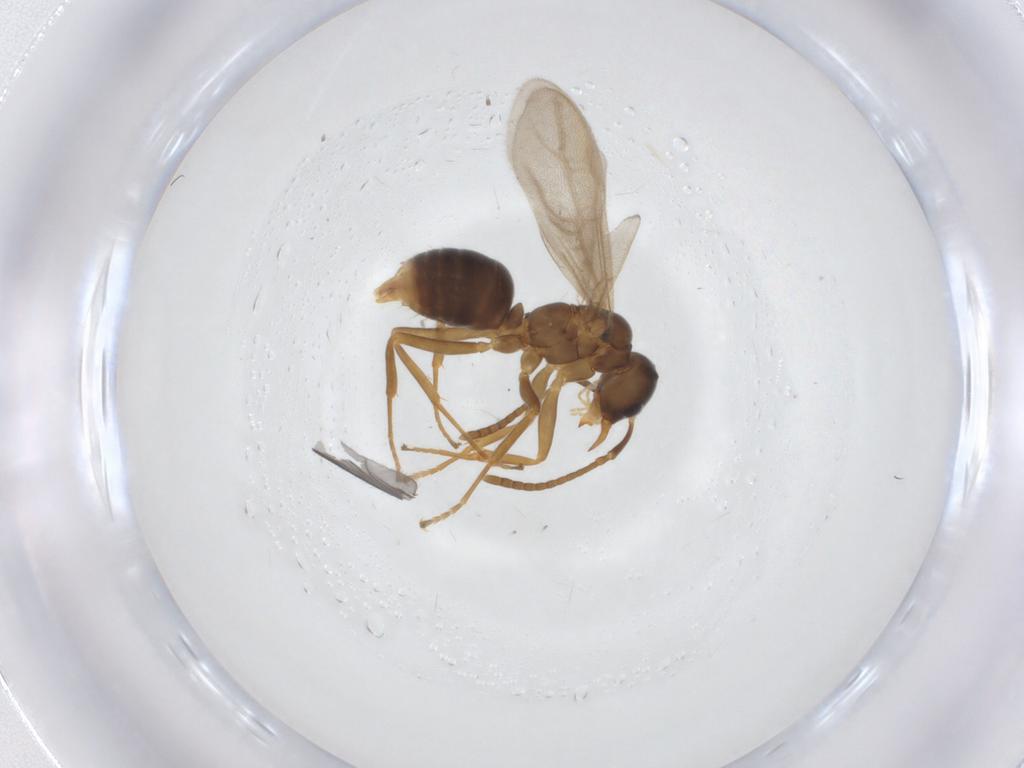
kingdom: Animalia
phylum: Arthropoda
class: Insecta
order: Hymenoptera
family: Formicidae
